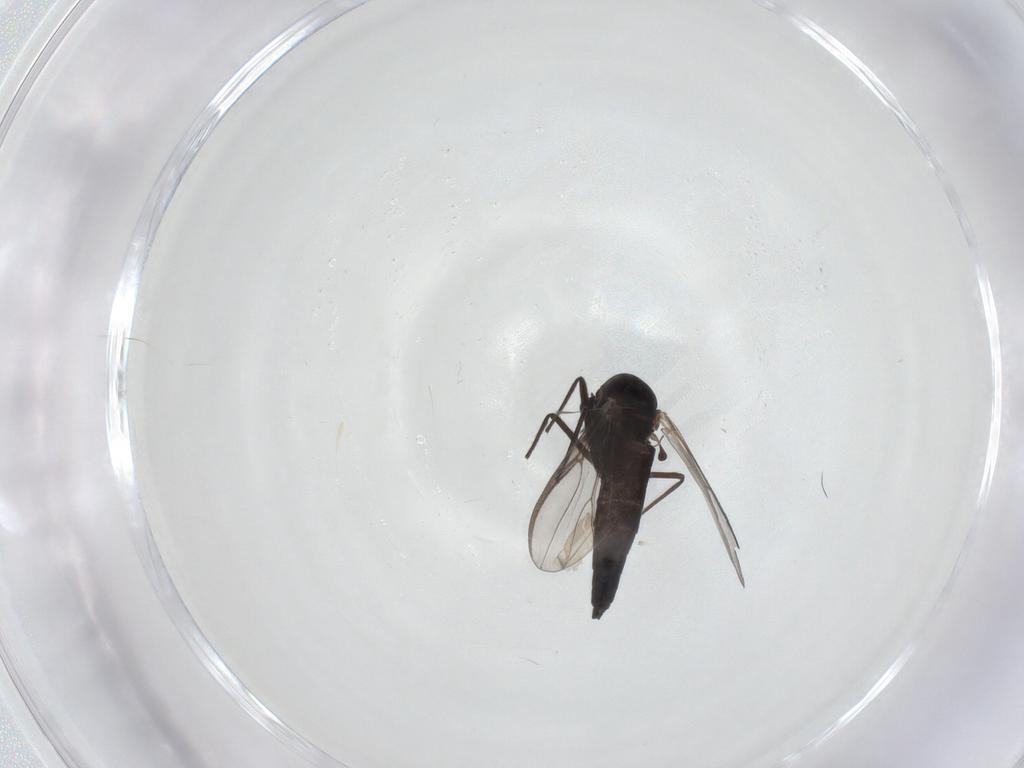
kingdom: Animalia
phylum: Arthropoda
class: Insecta
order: Diptera
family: Chironomidae
